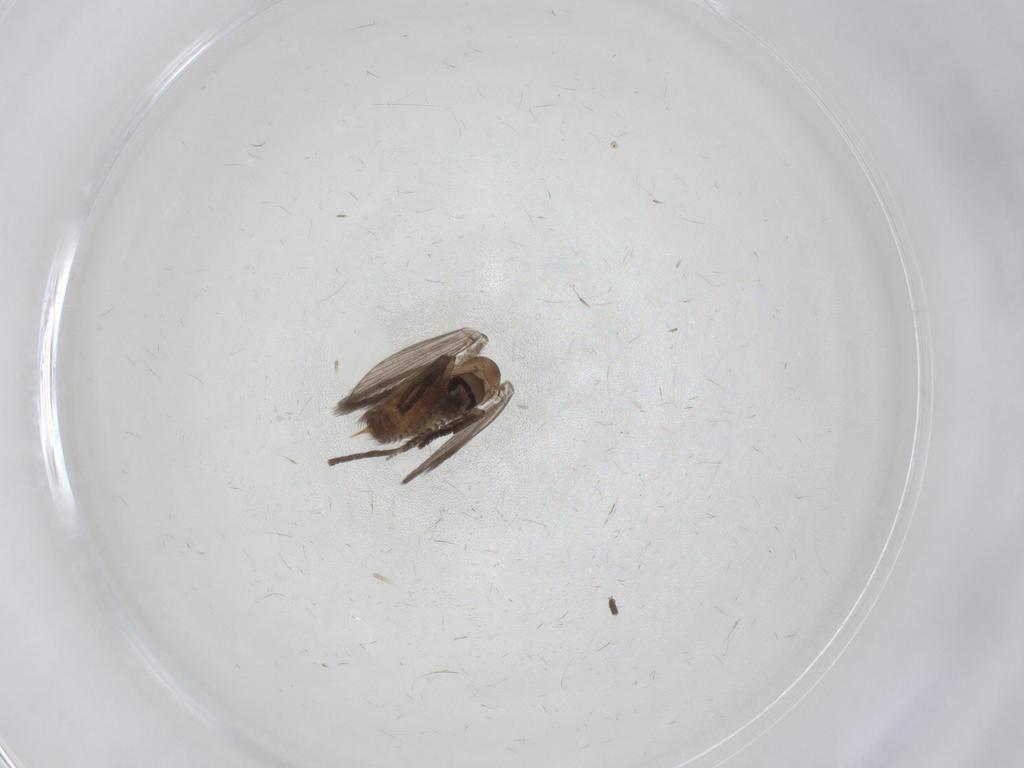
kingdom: Animalia
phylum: Arthropoda
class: Insecta
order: Diptera
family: Psychodidae
